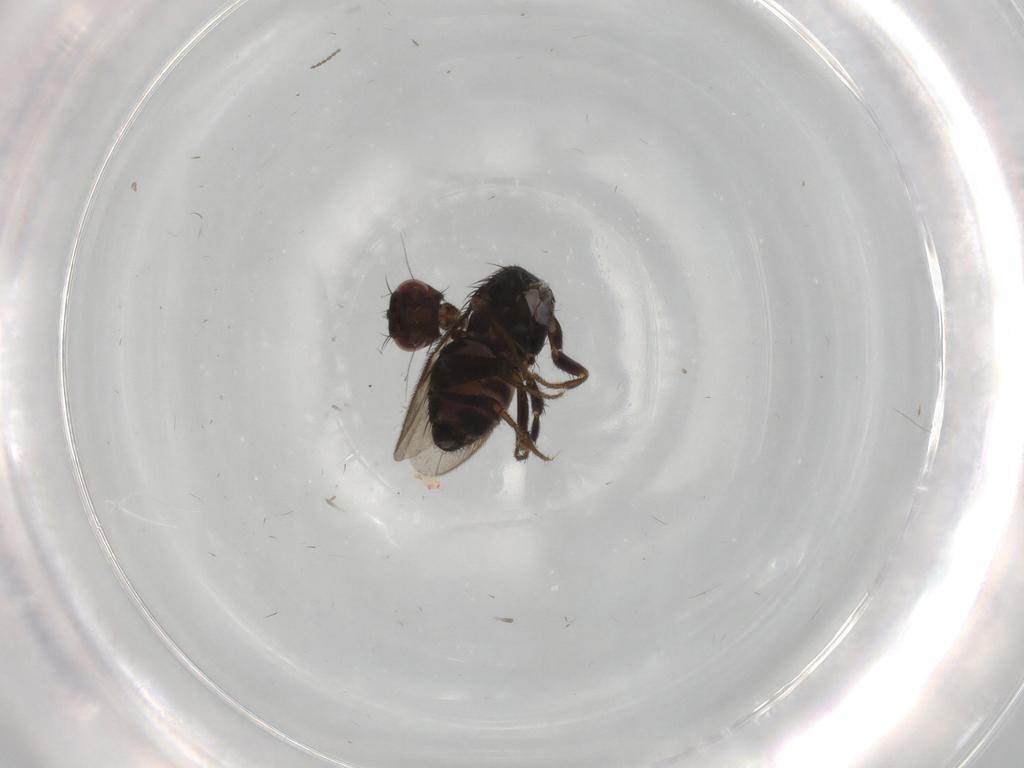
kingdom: Animalia
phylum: Arthropoda
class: Insecta
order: Diptera
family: Sphaeroceridae
